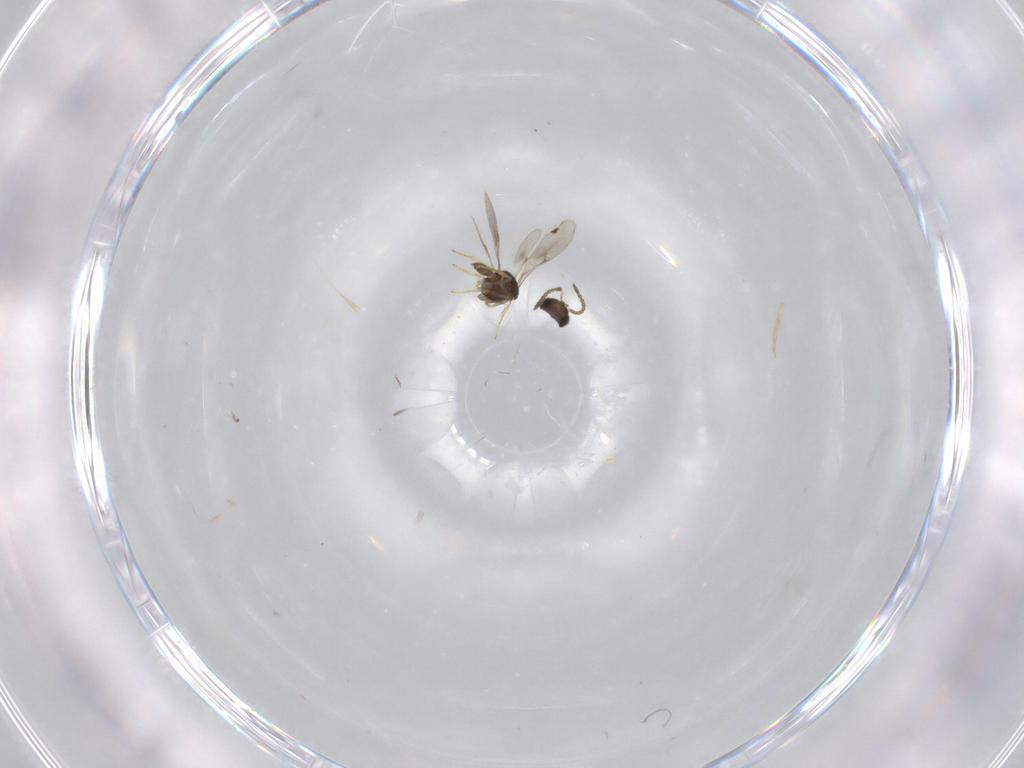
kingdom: Animalia
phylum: Arthropoda
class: Insecta
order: Hymenoptera
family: Scelionidae
